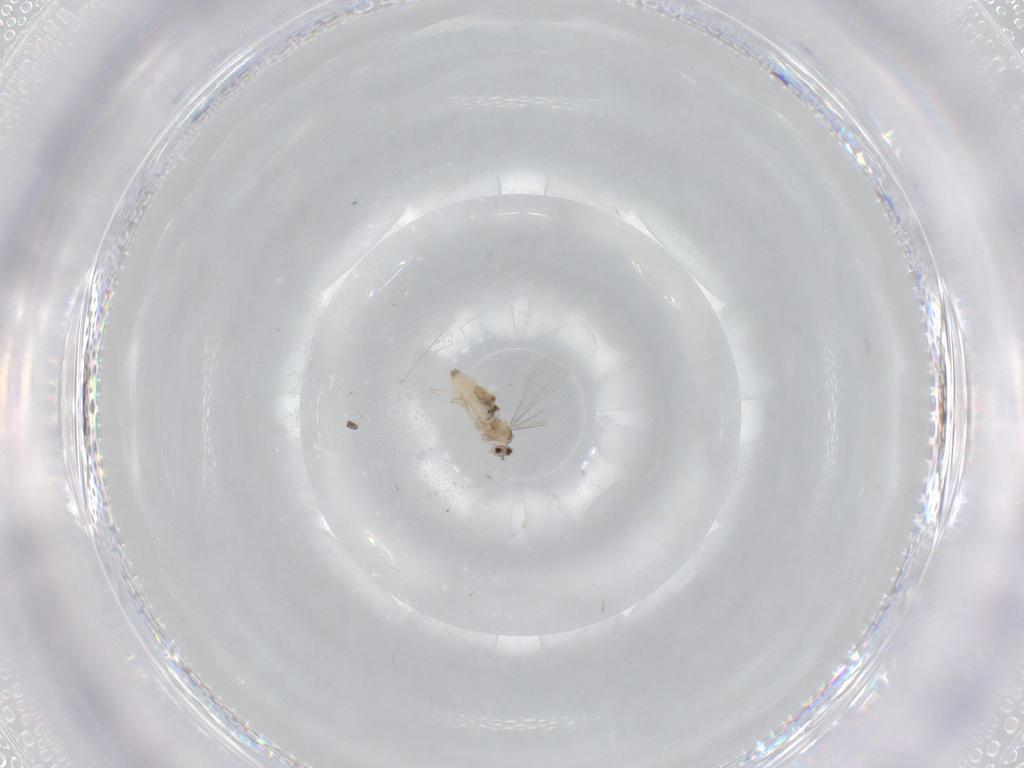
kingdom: Animalia
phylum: Arthropoda
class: Insecta
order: Diptera
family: Cecidomyiidae
